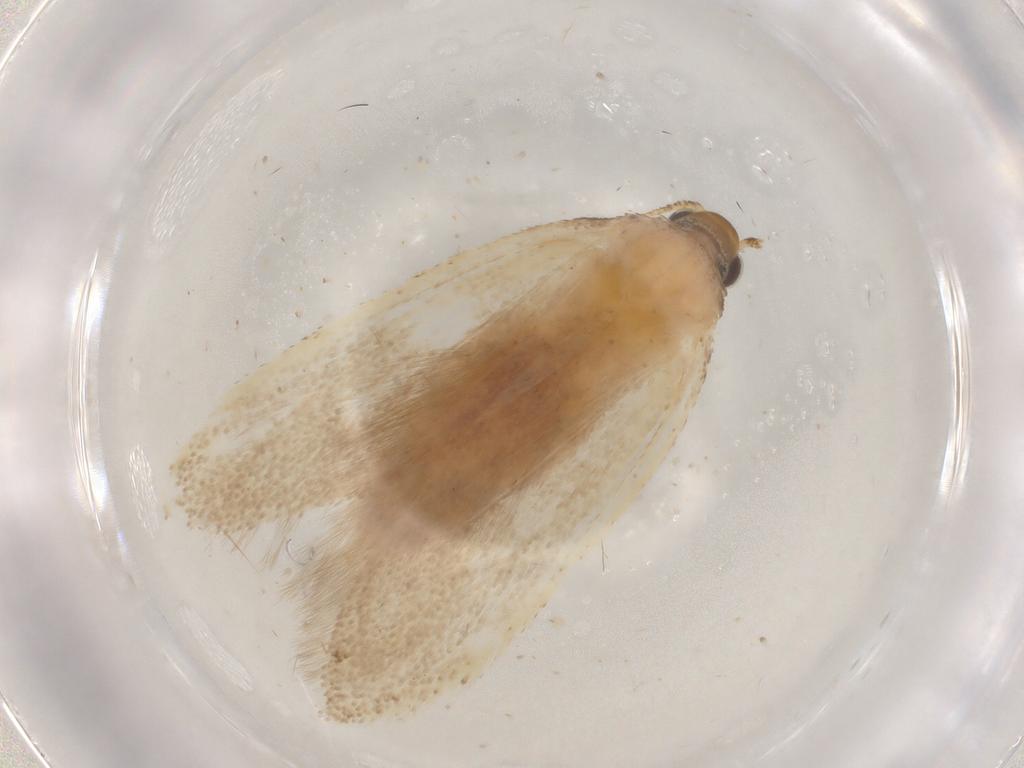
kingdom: Animalia
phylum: Arthropoda
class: Insecta
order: Lepidoptera
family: Autostichidae
